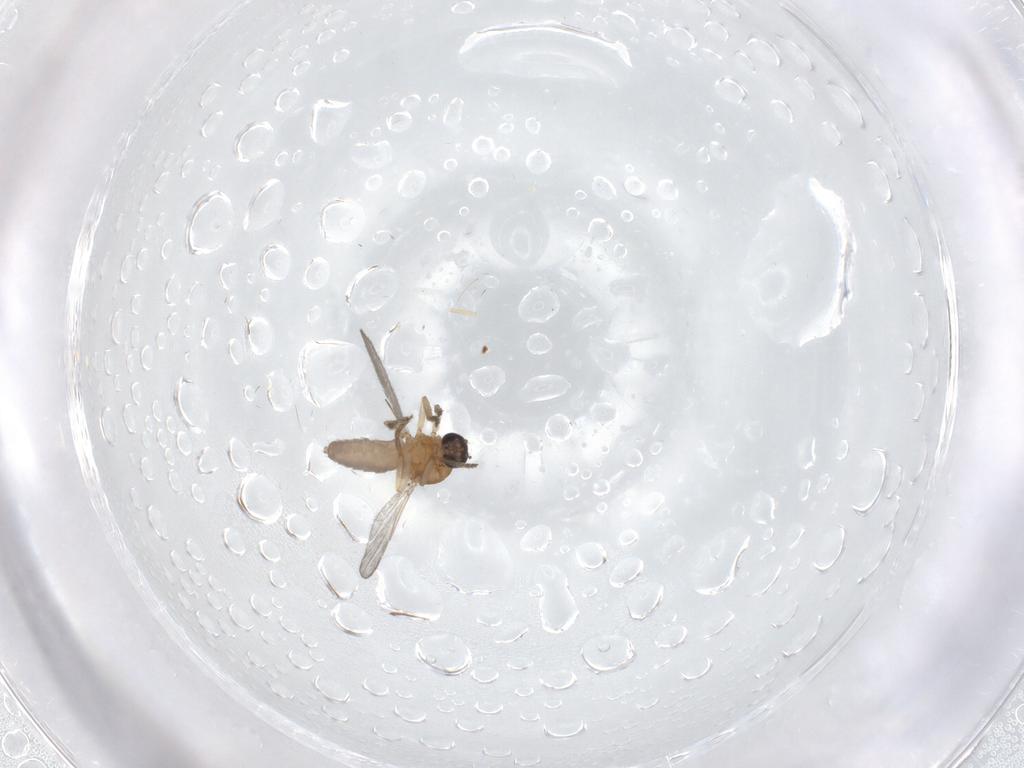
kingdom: Animalia
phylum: Arthropoda
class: Insecta
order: Diptera
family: Ceratopogonidae
